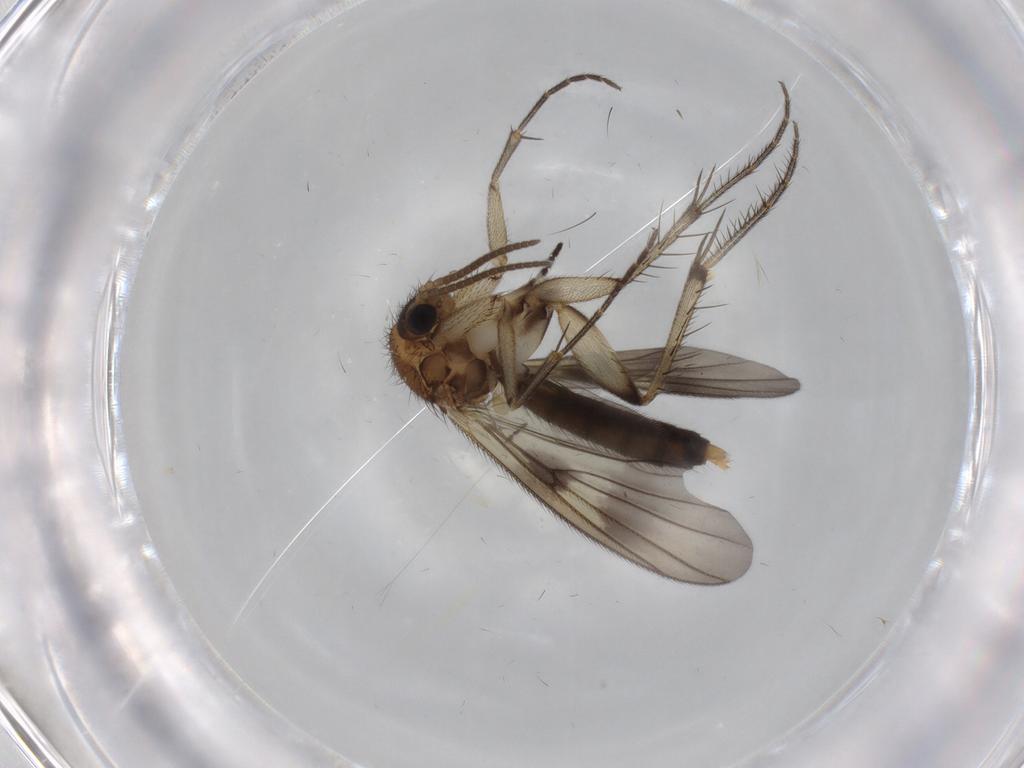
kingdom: Animalia
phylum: Arthropoda
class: Insecta
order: Diptera
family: Mycetophilidae
